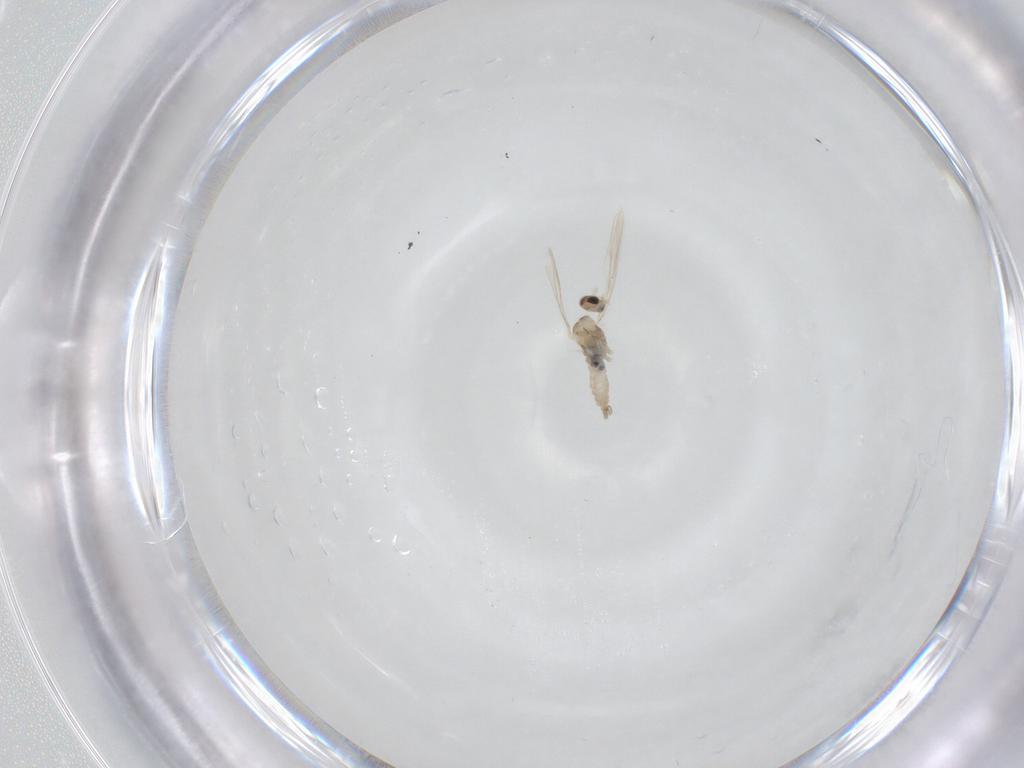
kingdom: Animalia
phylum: Arthropoda
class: Insecta
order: Diptera
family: Cecidomyiidae
